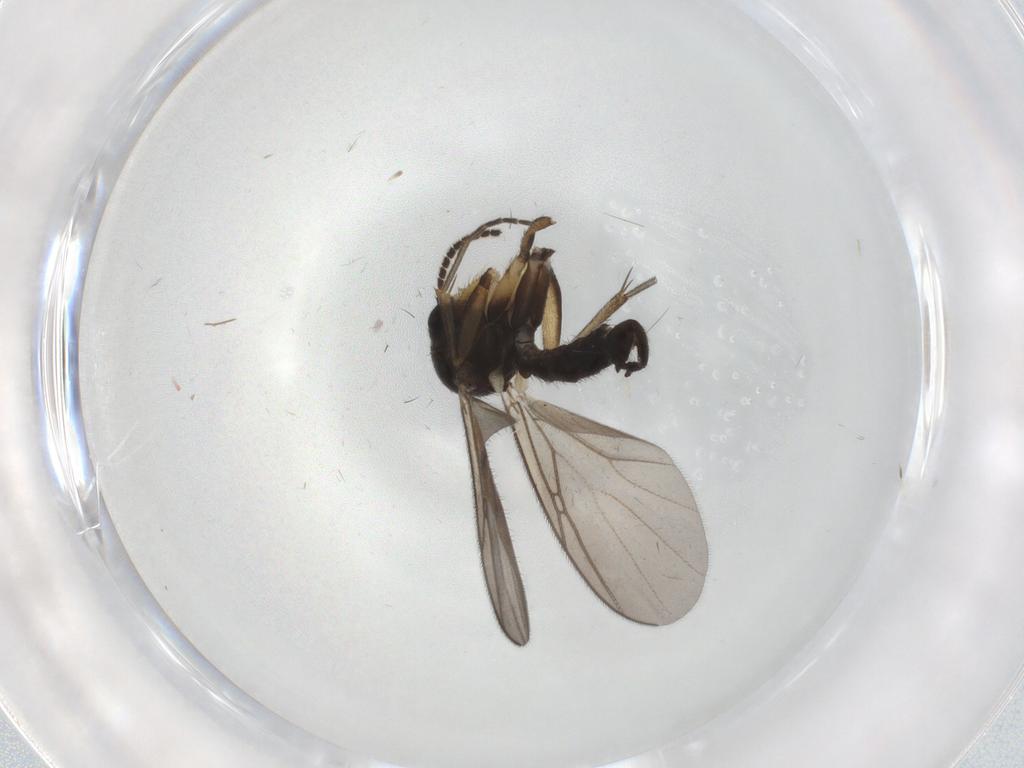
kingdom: Animalia
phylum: Arthropoda
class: Insecta
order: Diptera
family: Mycetophilidae
